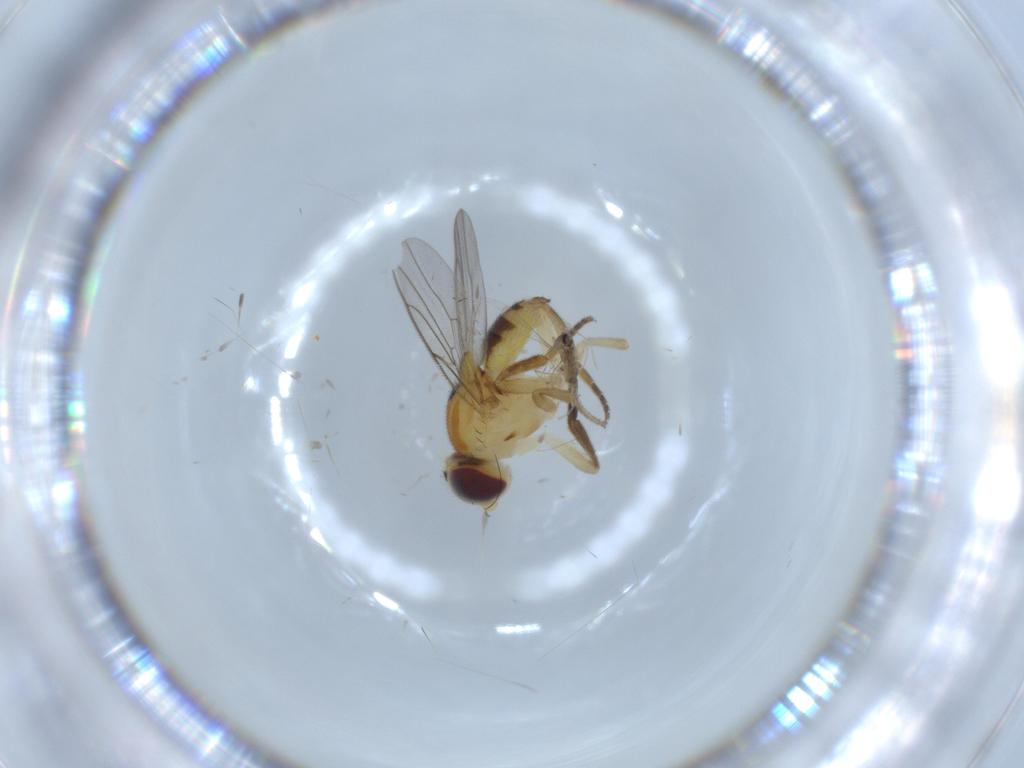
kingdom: Animalia
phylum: Arthropoda
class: Insecta
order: Diptera
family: Chloropidae
